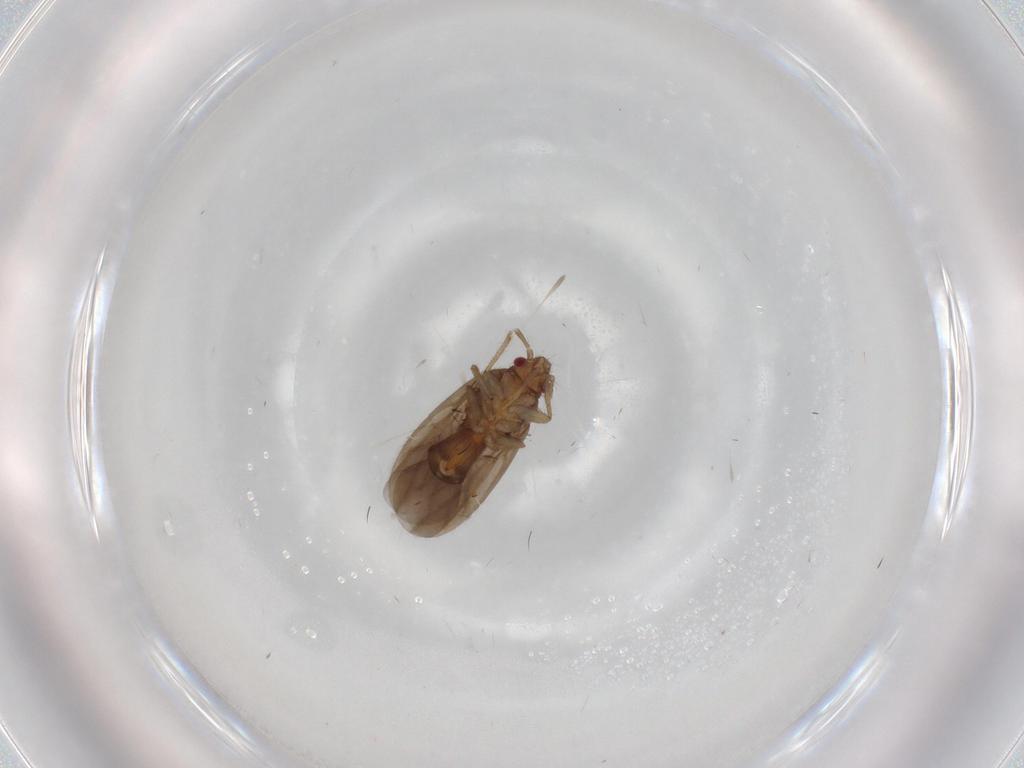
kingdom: Animalia
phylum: Arthropoda
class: Insecta
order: Hemiptera
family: Ceratocombidae
